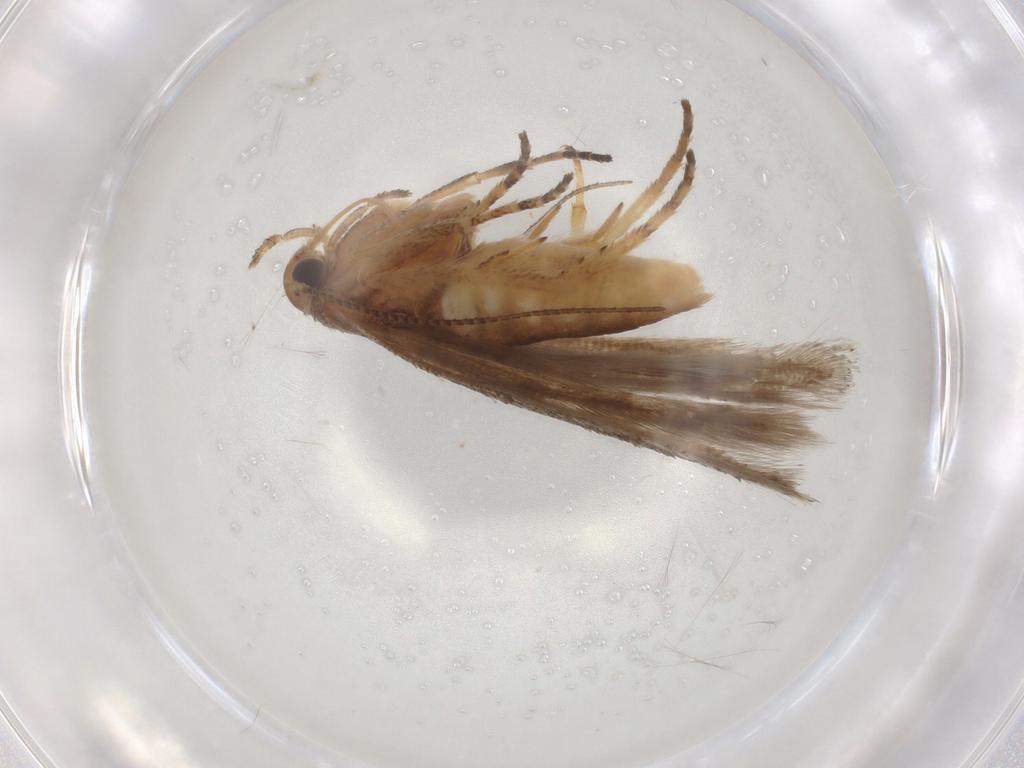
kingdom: Animalia
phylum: Arthropoda
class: Insecta
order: Lepidoptera
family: Gelechiidae
